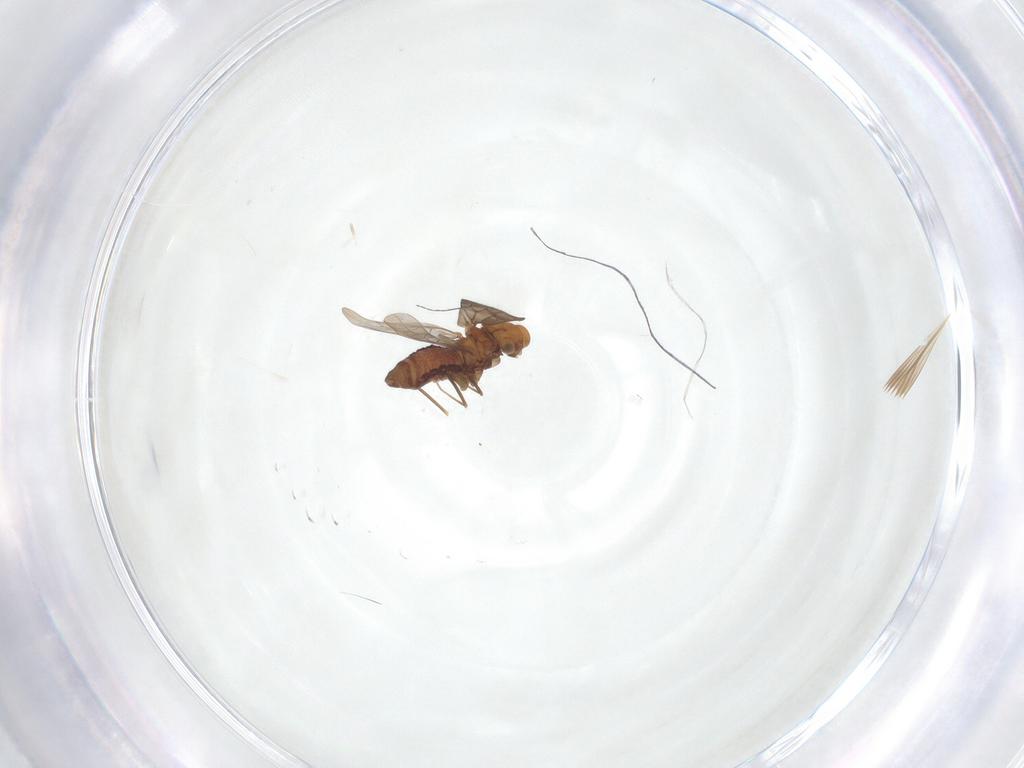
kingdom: Animalia
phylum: Arthropoda
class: Insecta
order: Psocodea
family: Lepidopsocidae
